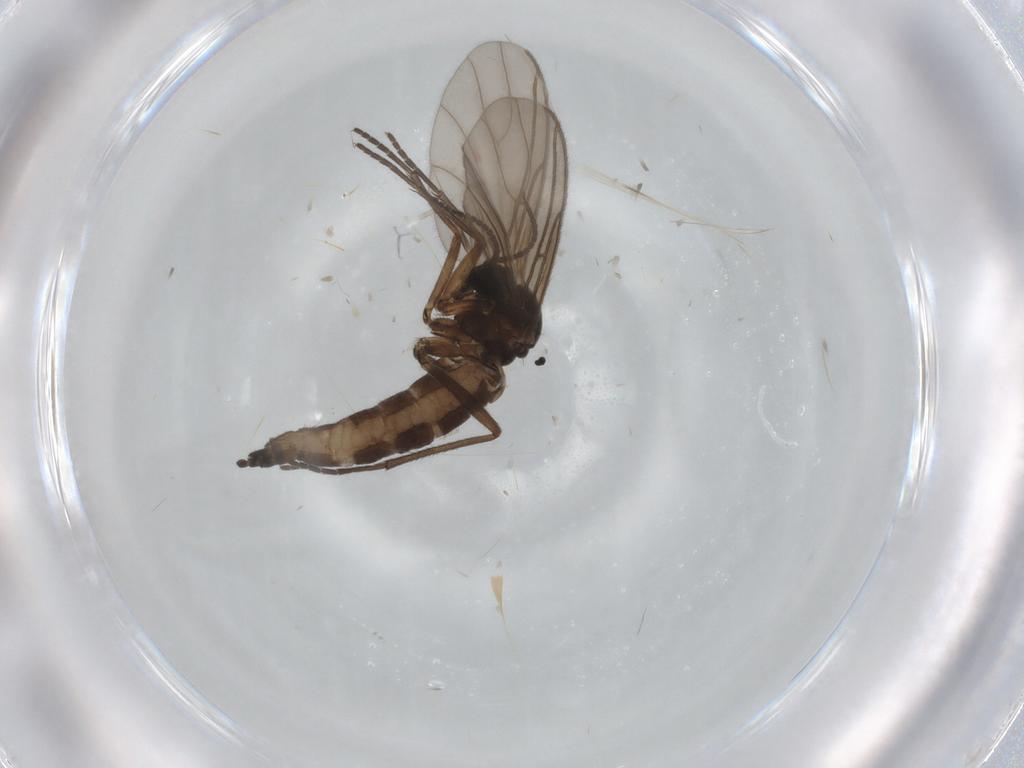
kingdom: Animalia
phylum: Arthropoda
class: Insecta
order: Diptera
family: Sciaridae
